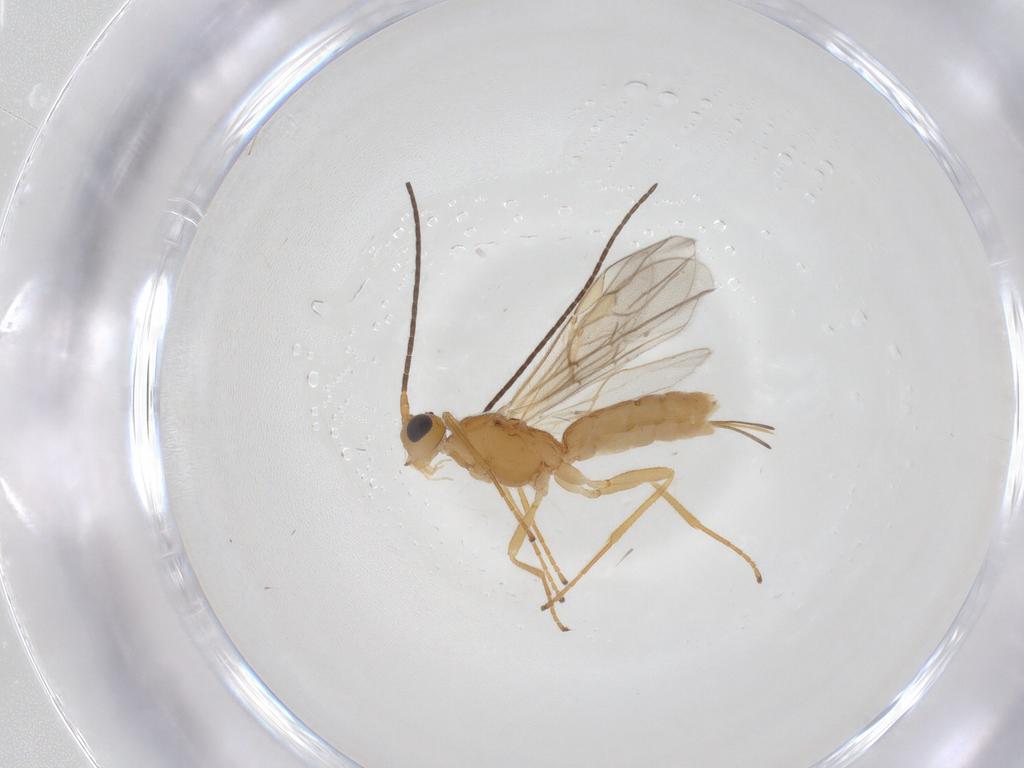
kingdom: Animalia
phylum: Arthropoda
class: Insecta
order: Hymenoptera
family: Braconidae
